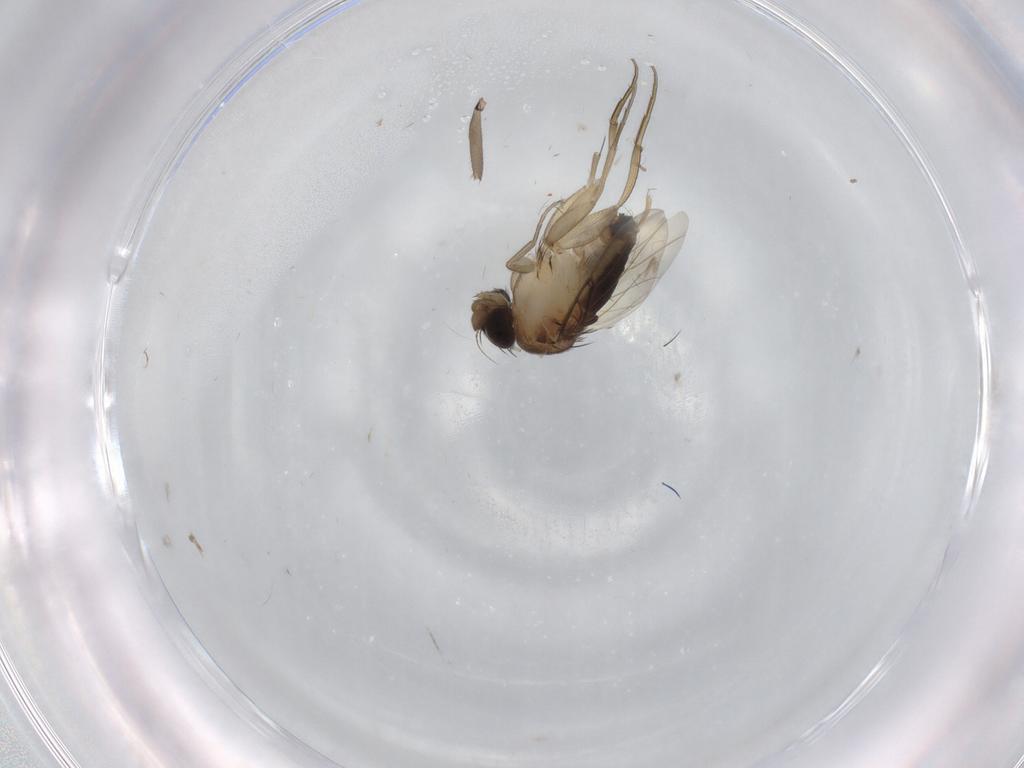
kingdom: Animalia
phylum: Arthropoda
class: Insecta
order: Diptera
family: Phoridae
